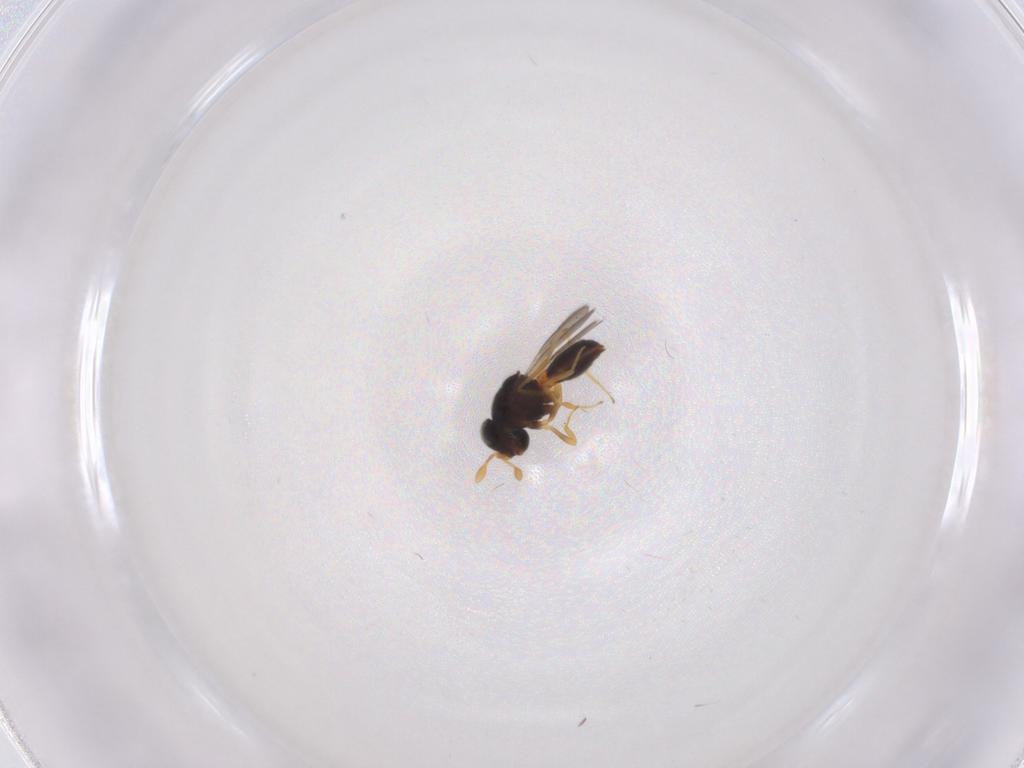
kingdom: Animalia
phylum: Arthropoda
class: Insecta
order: Hymenoptera
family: Scelionidae
